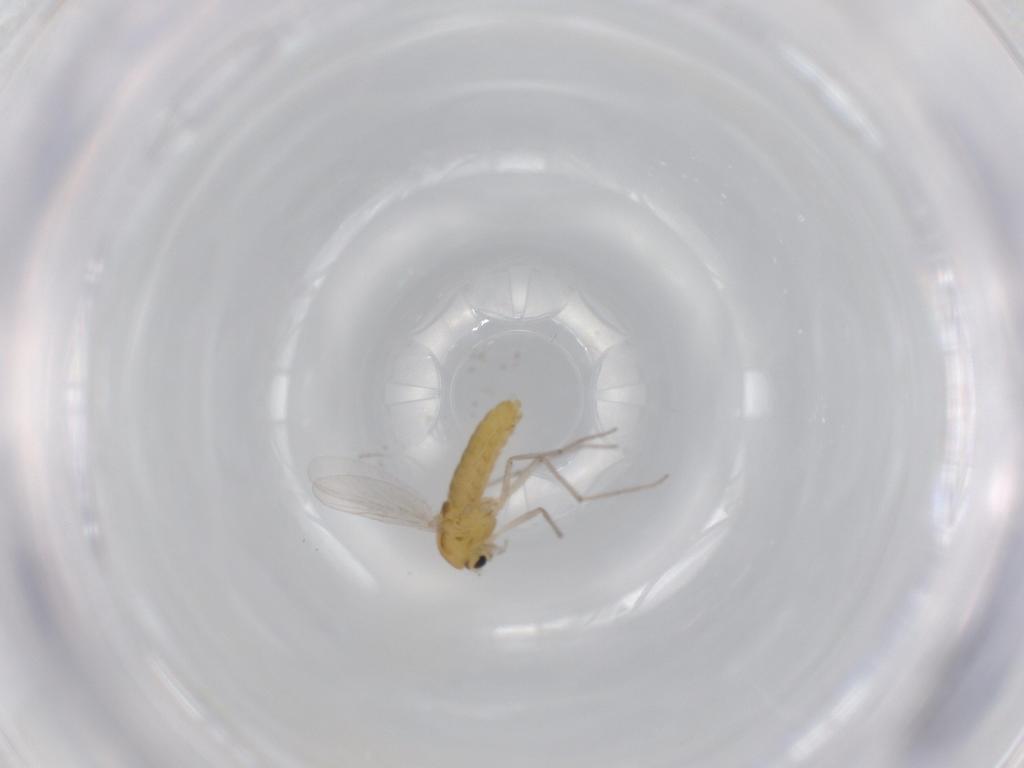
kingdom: Animalia
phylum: Arthropoda
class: Insecta
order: Diptera
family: Chironomidae
